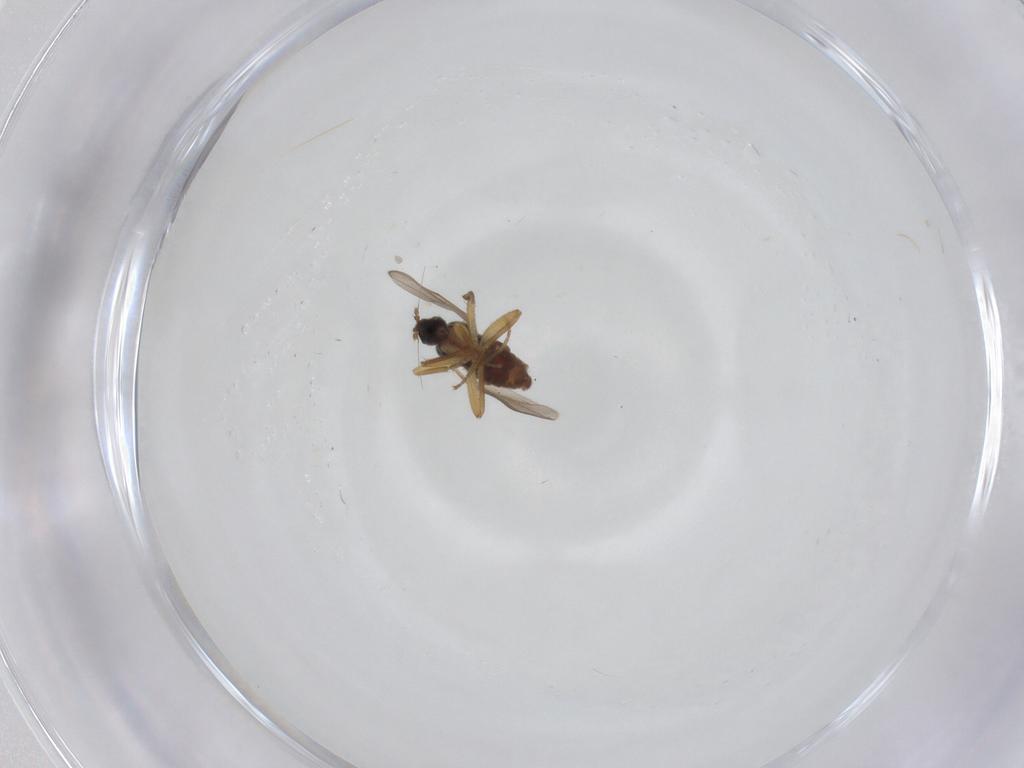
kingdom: Animalia
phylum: Arthropoda
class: Insecta
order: Diptera
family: Hybotidae
